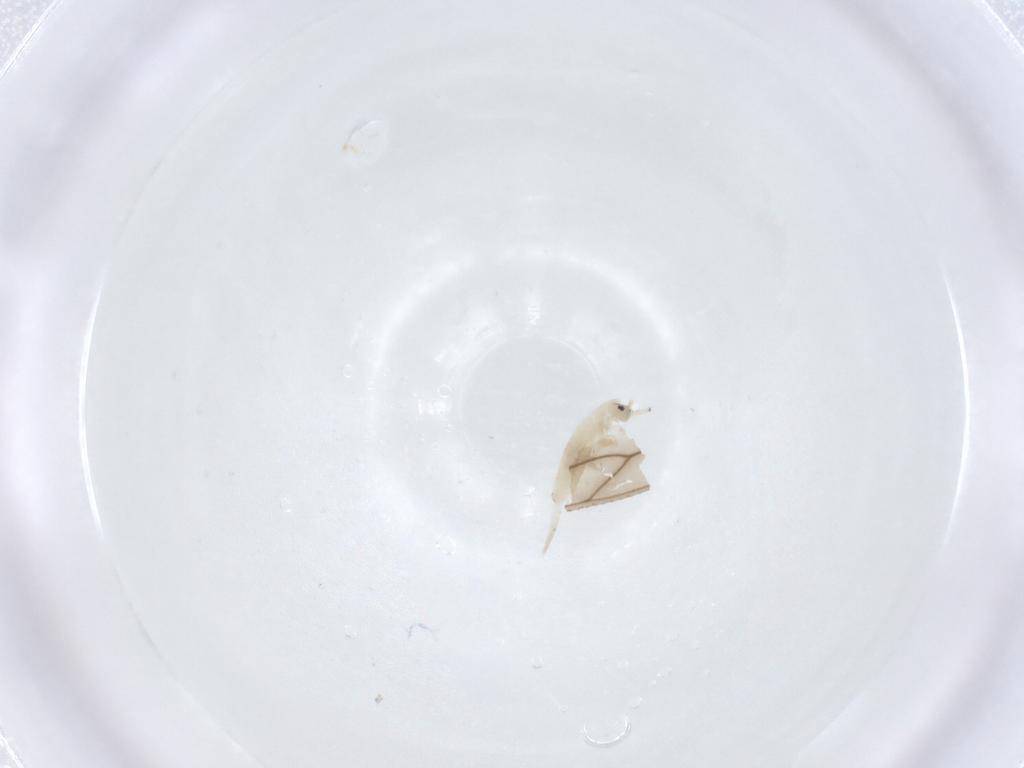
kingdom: Animalia
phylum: Arthropoda
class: Collembola
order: Entomobryomorpha
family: Entomobryidae
